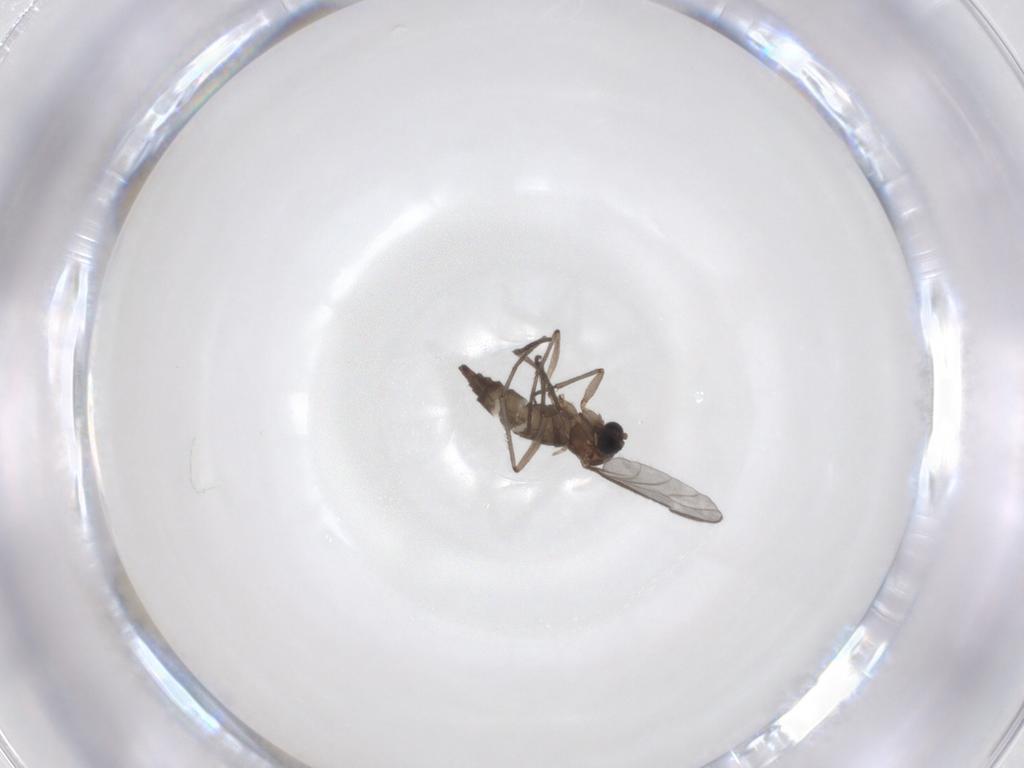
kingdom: Animalia
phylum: Arthropoda
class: Insecta
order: Diptera
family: Sciaridae
